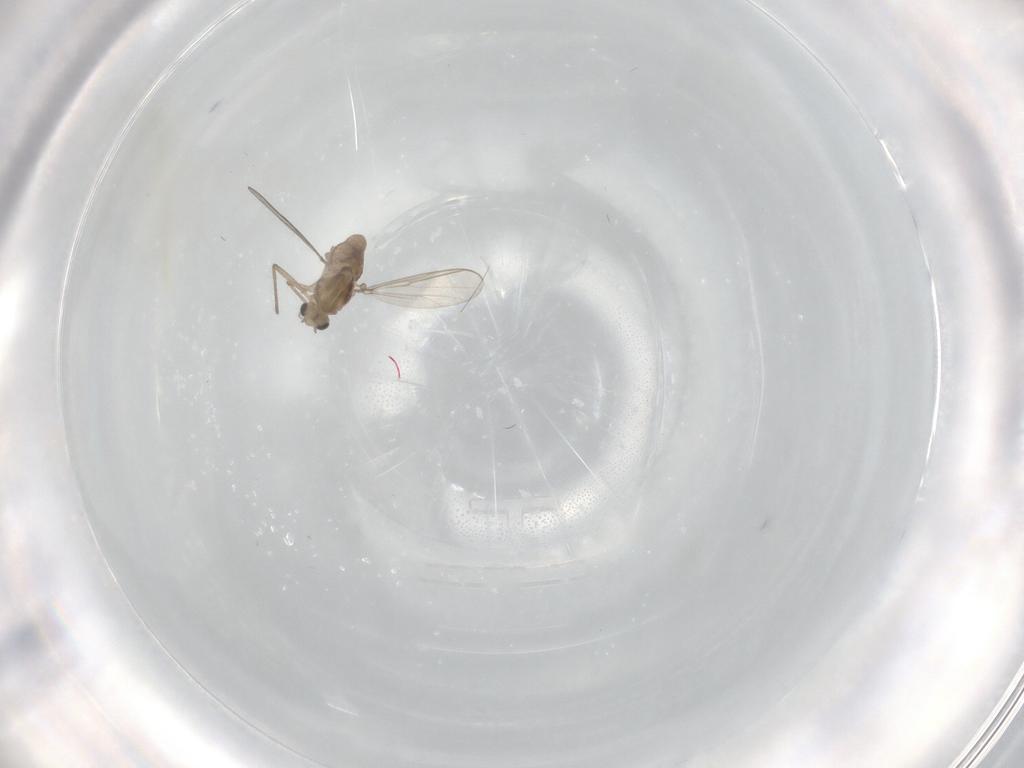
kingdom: Animalia
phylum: Arthropoda
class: Insecta
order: Diptera
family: Chironomidae
